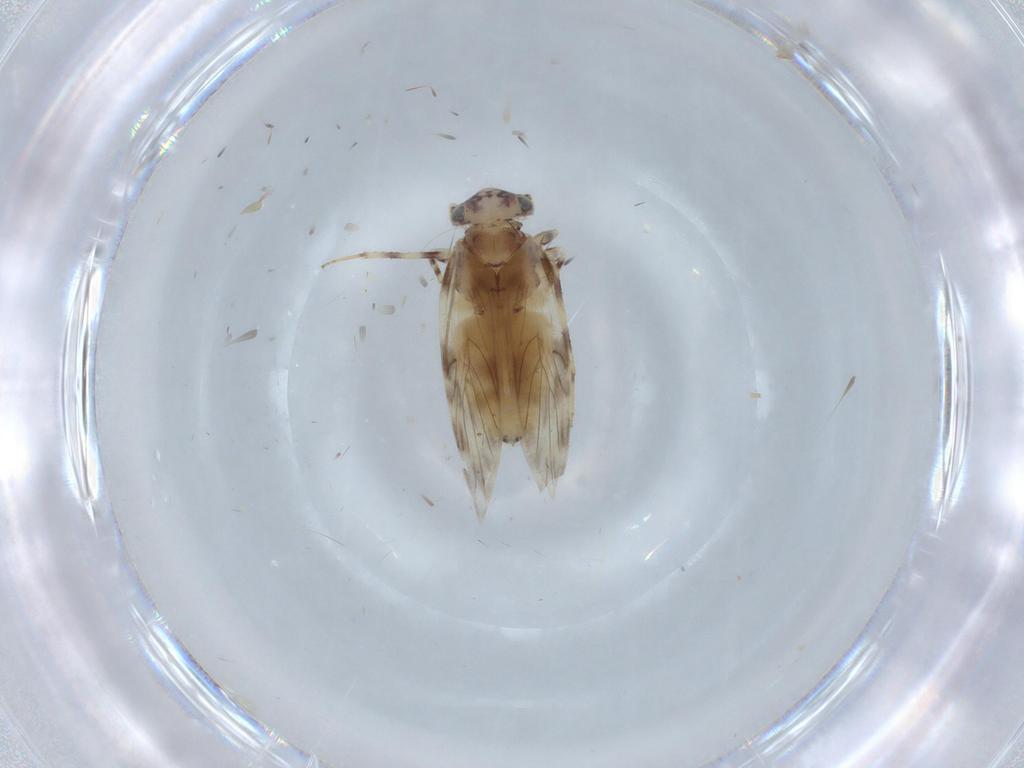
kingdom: Animalia
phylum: Arthropoda
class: Insecta
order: Psocodea
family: Lepidopsocidae
